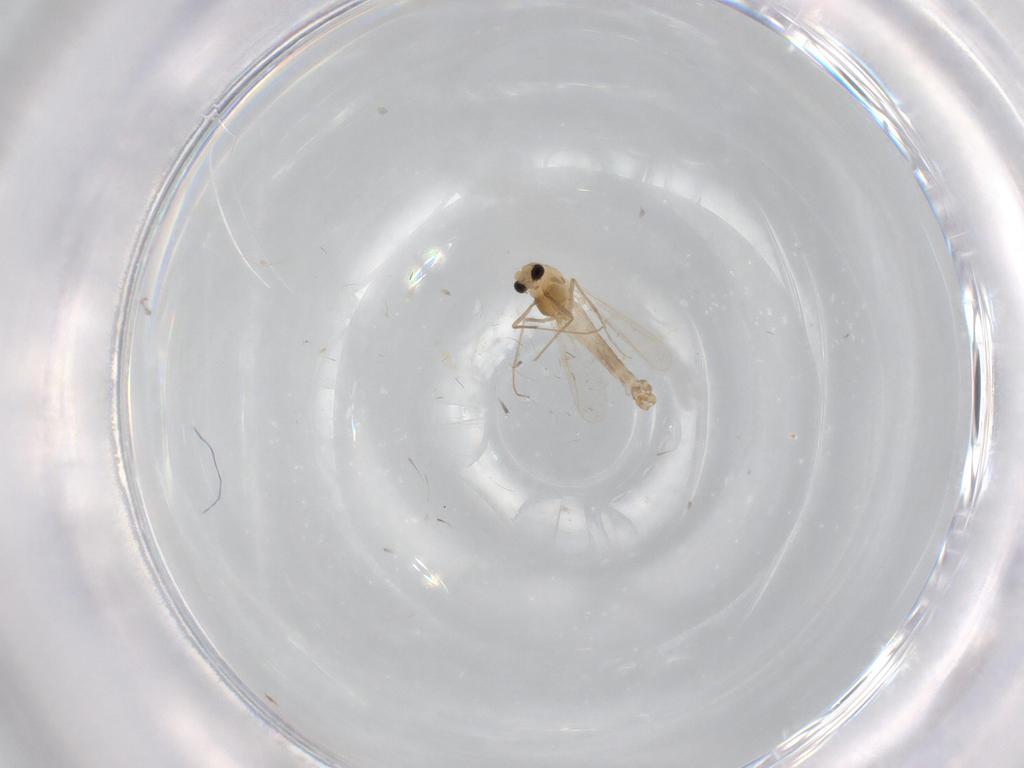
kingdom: Animalia
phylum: Arthropoda
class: Insecta
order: Diptera
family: Chironomidae
